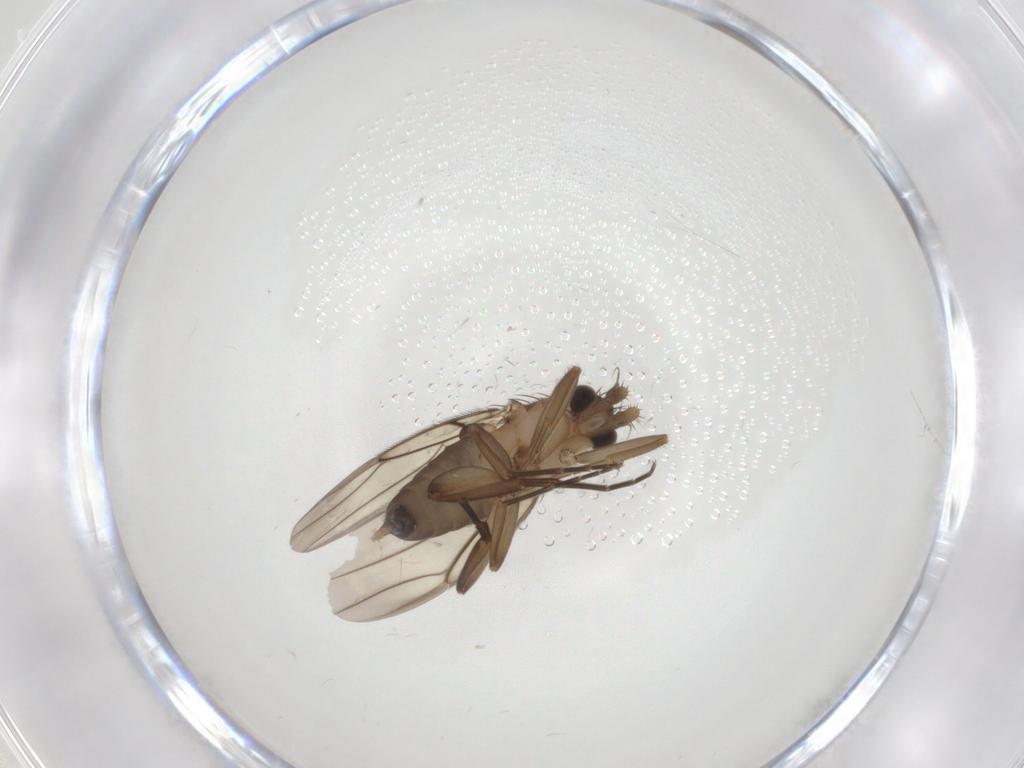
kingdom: Animalia
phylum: Arthropoda
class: Insecta
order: Diptera
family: Phoridae
